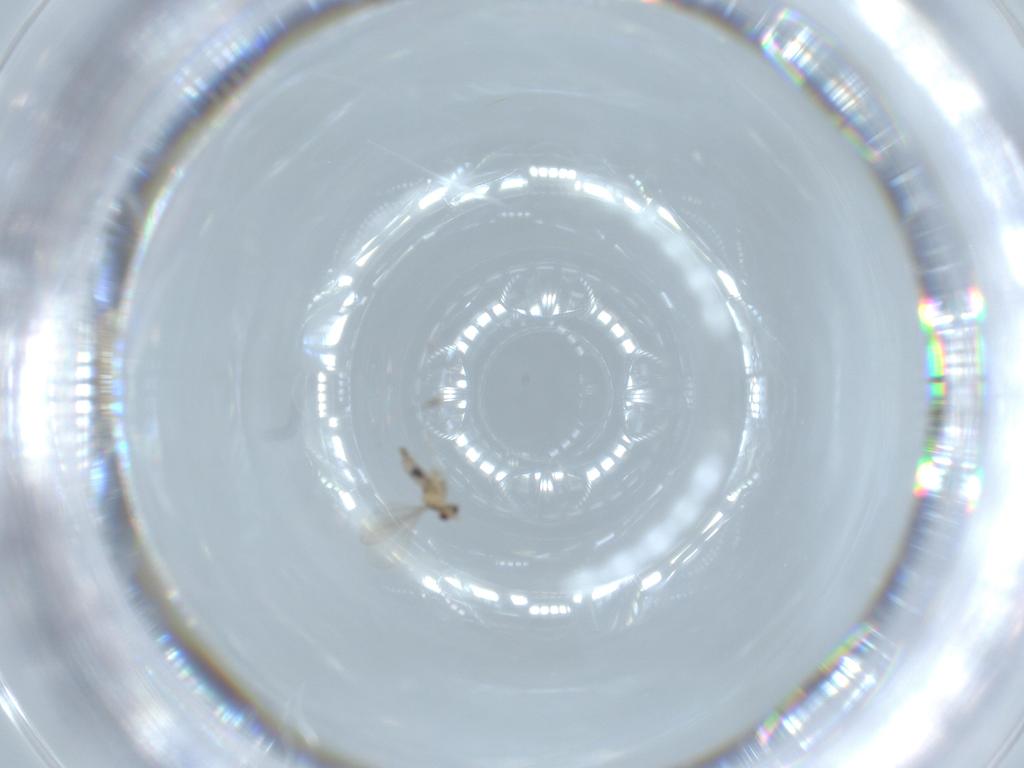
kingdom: Animalia
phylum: Arthropoda
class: Insecta
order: Diptera
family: Cecidomyiidae
